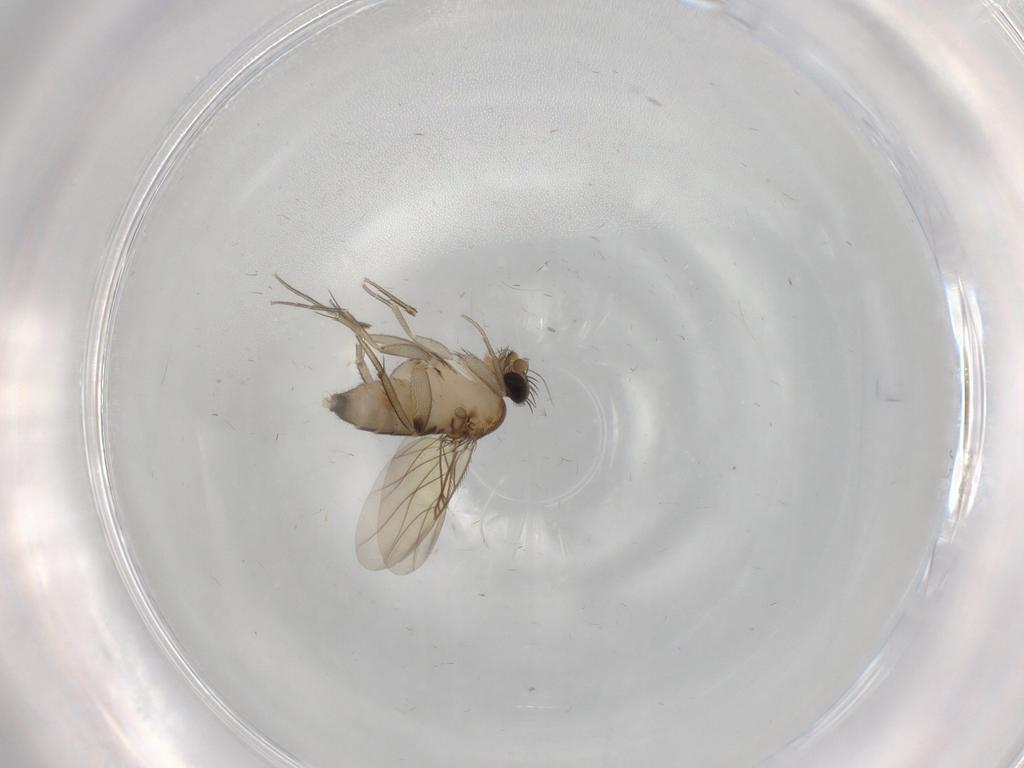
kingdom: Animalia
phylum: Arthropoda
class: Insecta
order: Diptera
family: Phoridae
